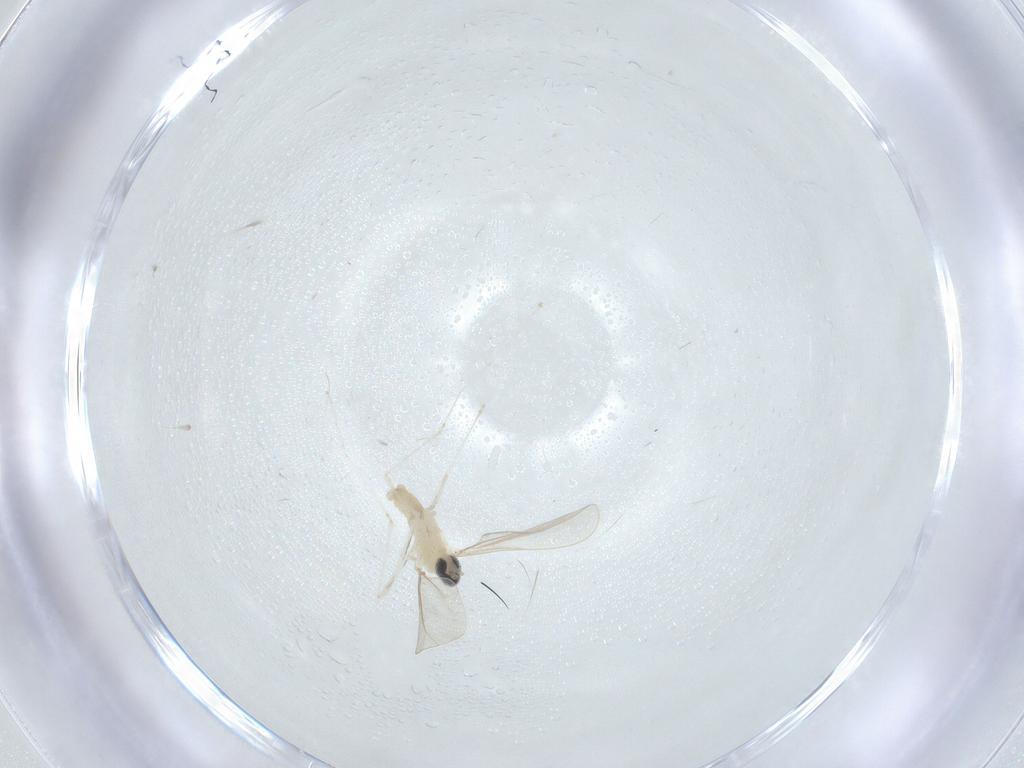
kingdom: Animalia
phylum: Arthropoda
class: Insecta
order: Diptera
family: Cecidomyiidae
